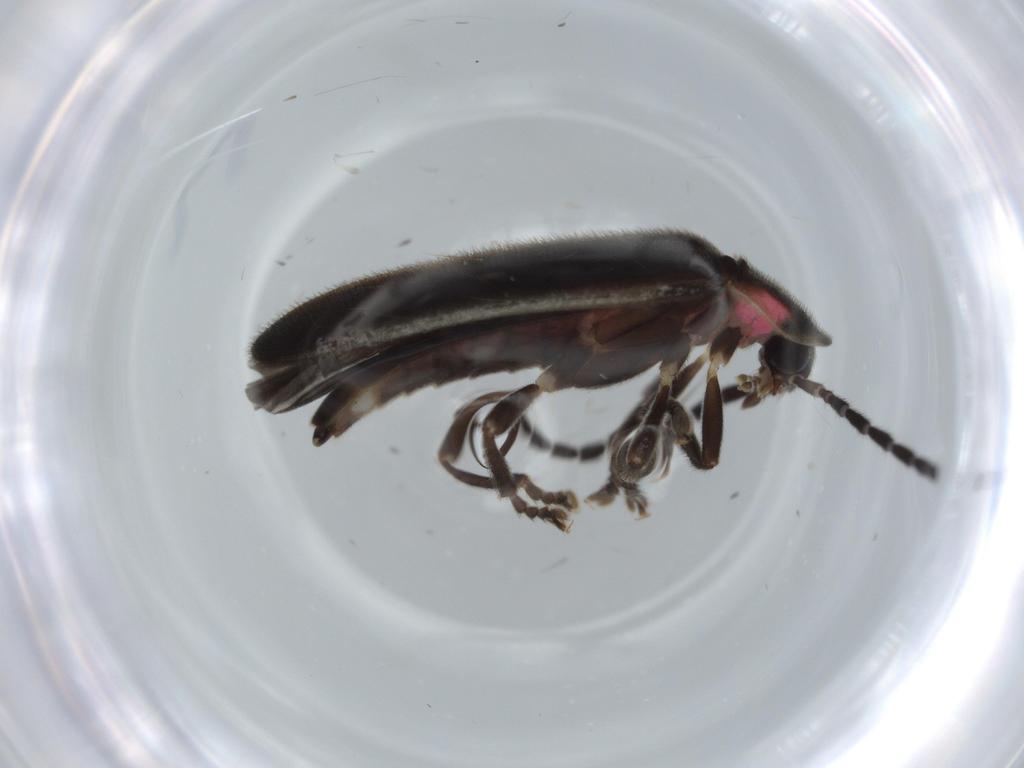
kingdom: Animalia
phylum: Arthropoda
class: Insecta
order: Coleoptera
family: Lampyridae
